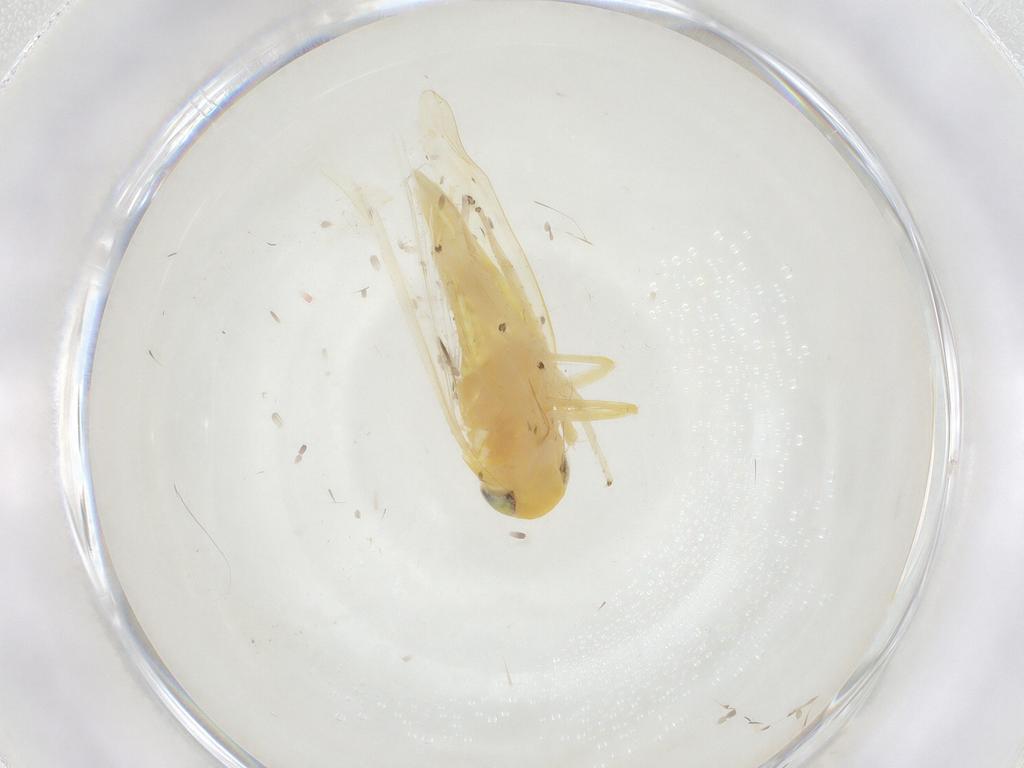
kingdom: Animalia
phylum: Arthropoda
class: Insecta
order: Hemiptera
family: Cicadellidae
